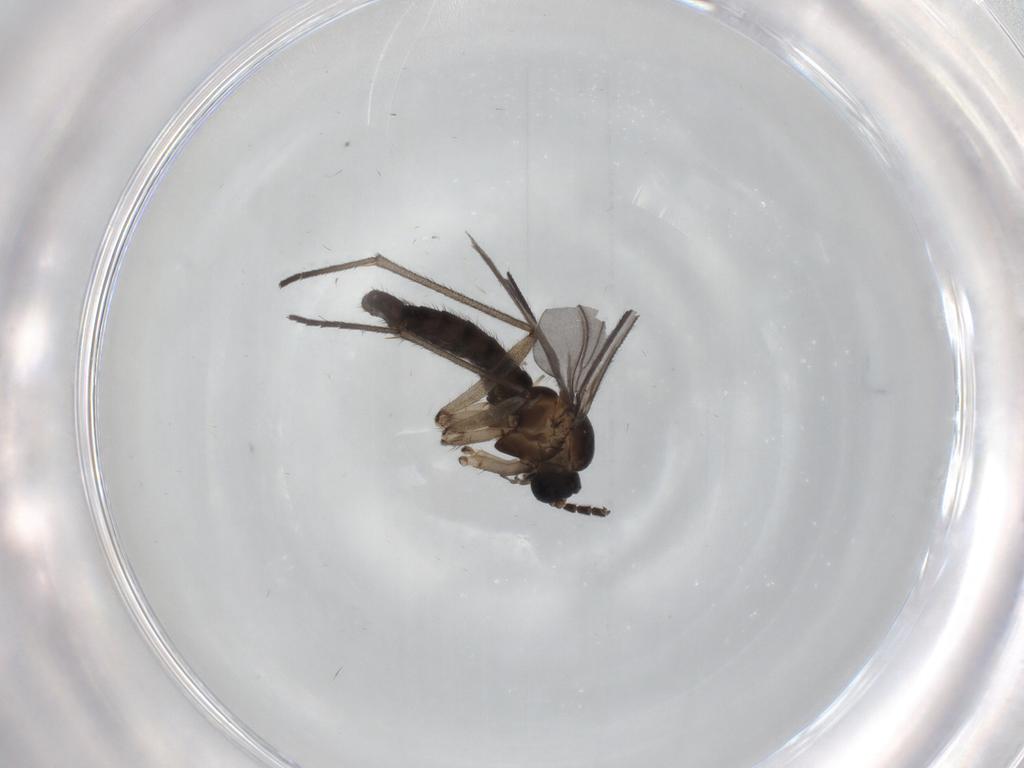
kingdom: Animalia
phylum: Arthropoda
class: Insecta
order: Diptera
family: Sciaridae
